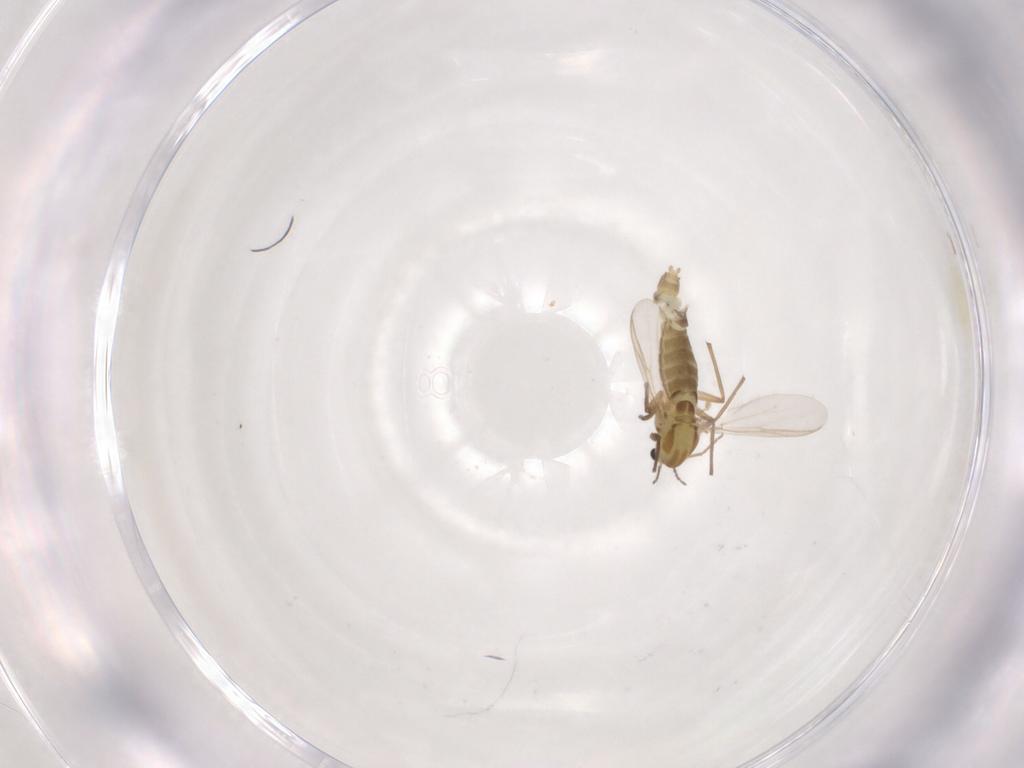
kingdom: Animalia
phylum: Arthropoda
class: Insecta
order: Diptera
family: Chironomidae
